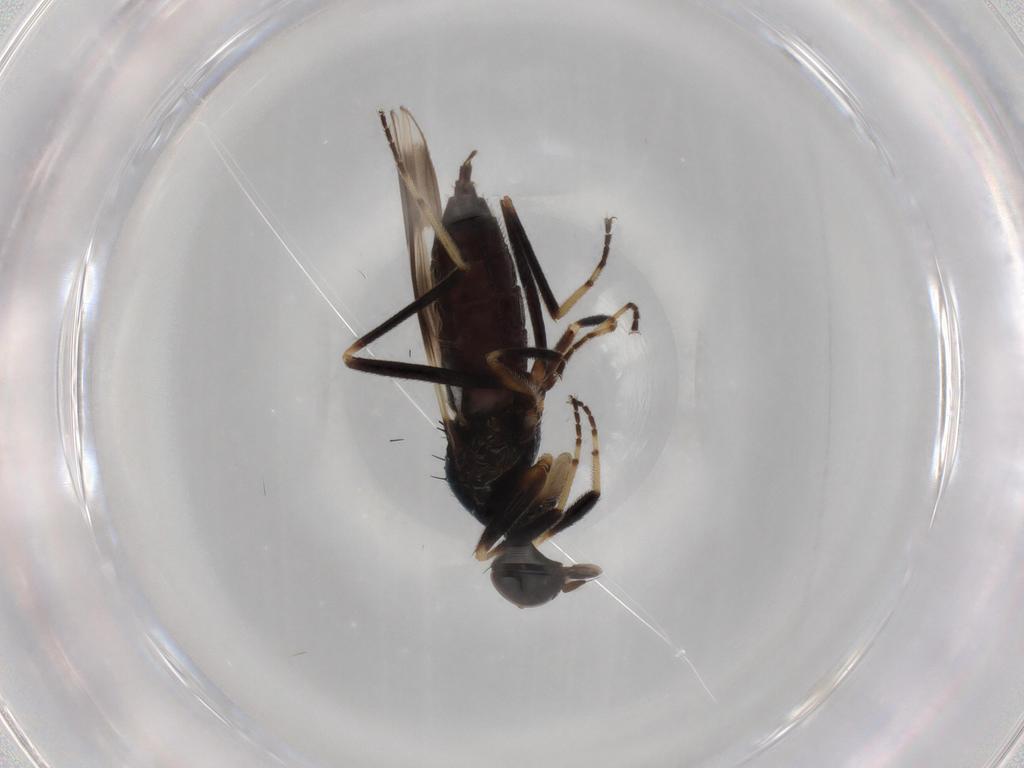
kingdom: Animalia
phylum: Arthropoda
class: Insecta
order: Diptera
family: Hybotidae
